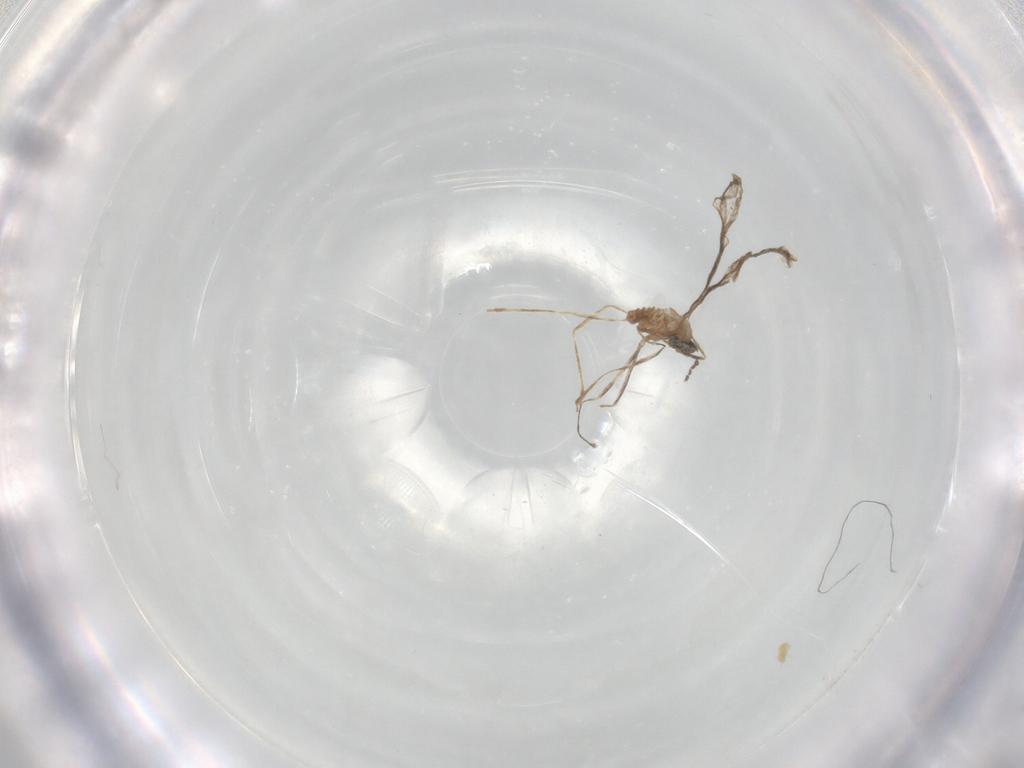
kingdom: Animalia
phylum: Arthropoda
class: Insecta
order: Diptera
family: Cecidomyiidae
